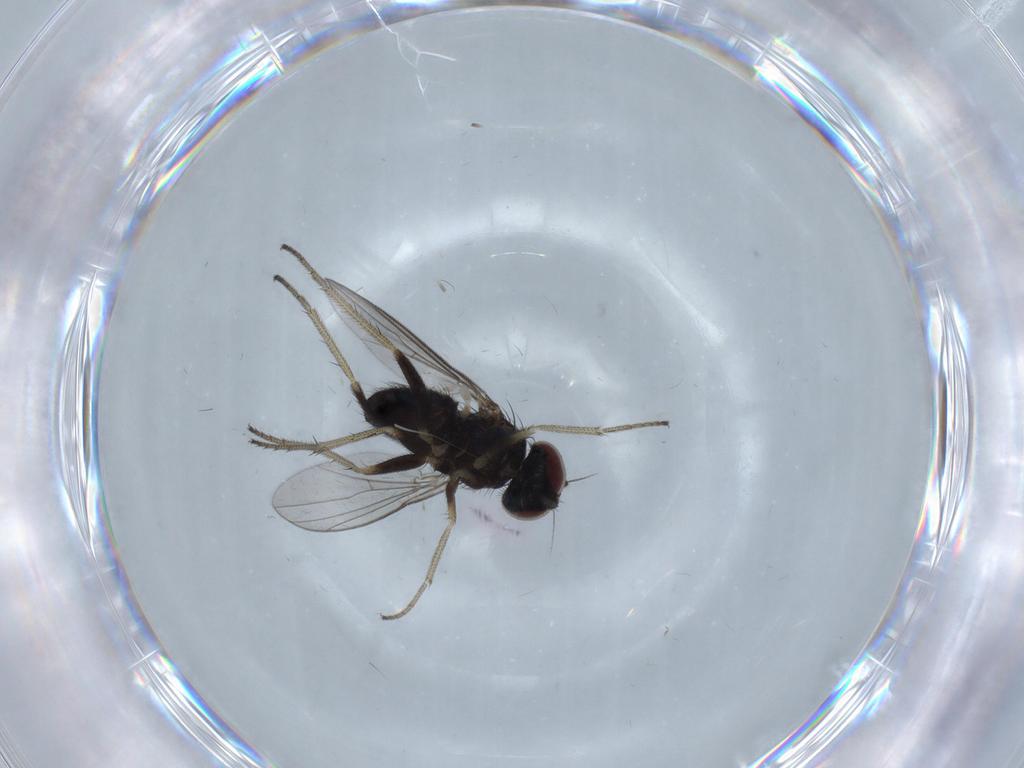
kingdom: Animalia
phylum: Arthropoda
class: Insecta
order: Diptera
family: Dolichopodidae
